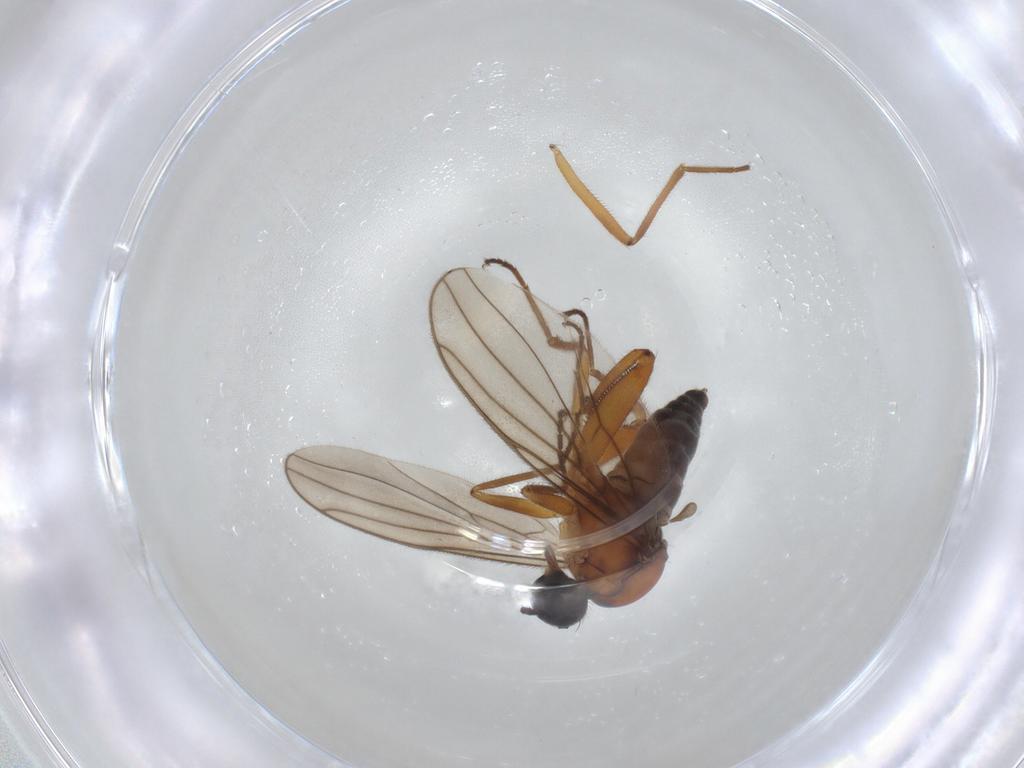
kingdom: Animalia
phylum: Arthropoda
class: Insecta
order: Diptera
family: Hybotidae
